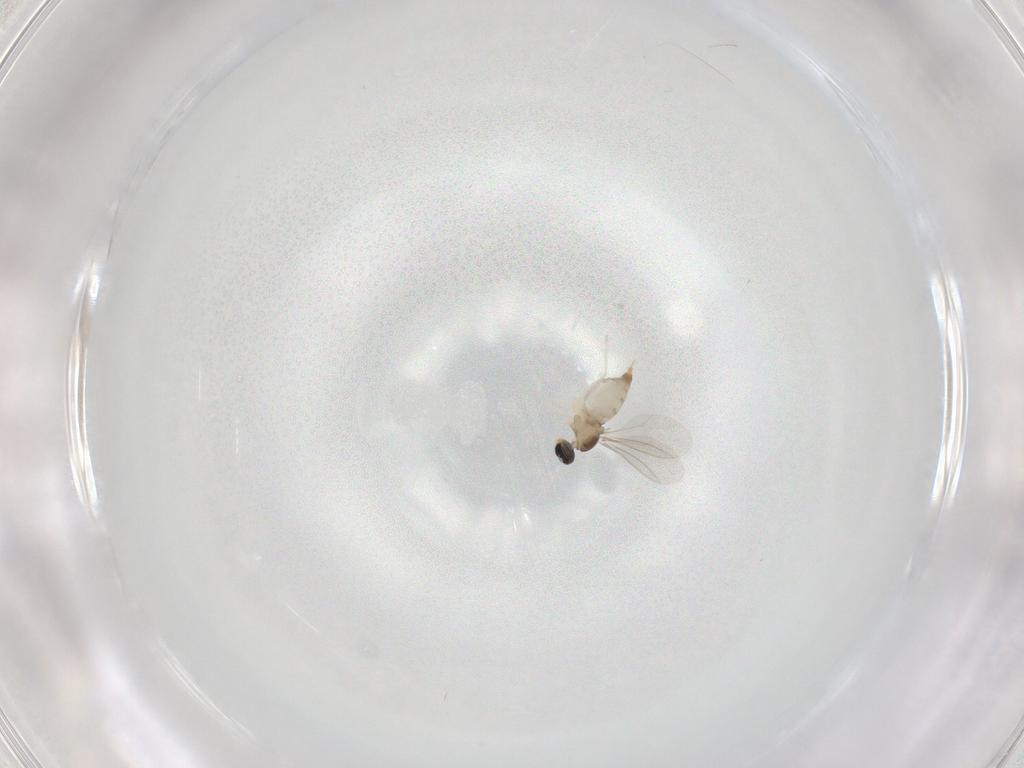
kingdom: Animalia
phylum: Arthropoda
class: Insecta
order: Diptera
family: Cecidomyiidae
